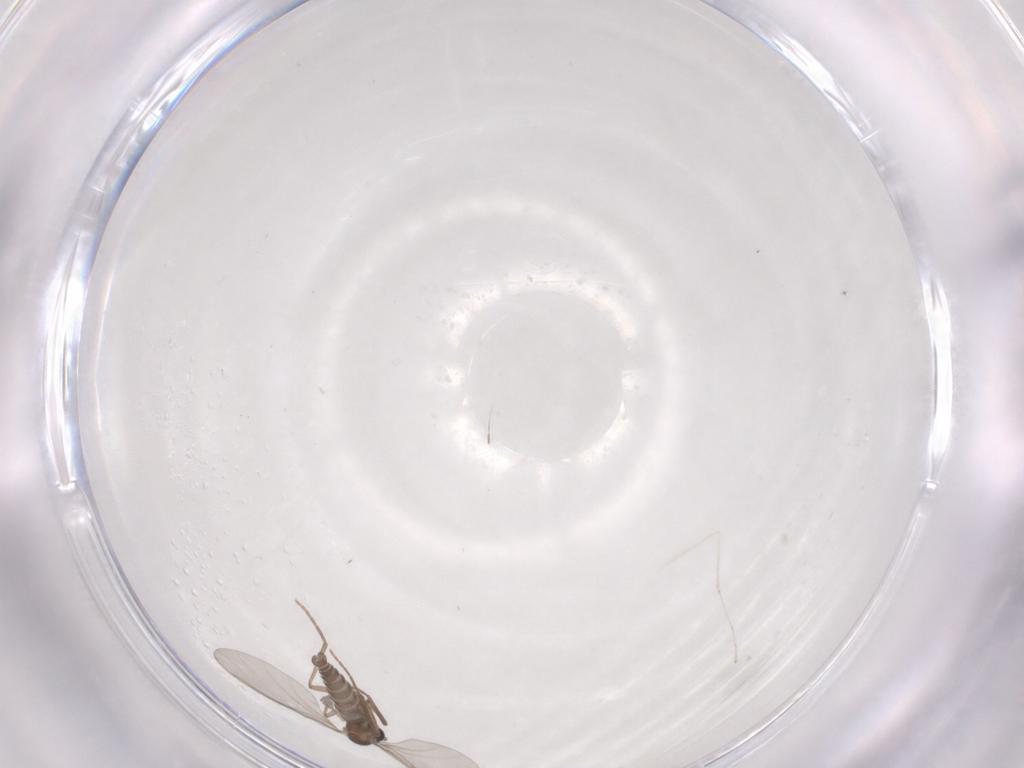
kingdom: Animalia
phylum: Arthropoda
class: Insecta
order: Diptera
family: Cecidomyiidae
